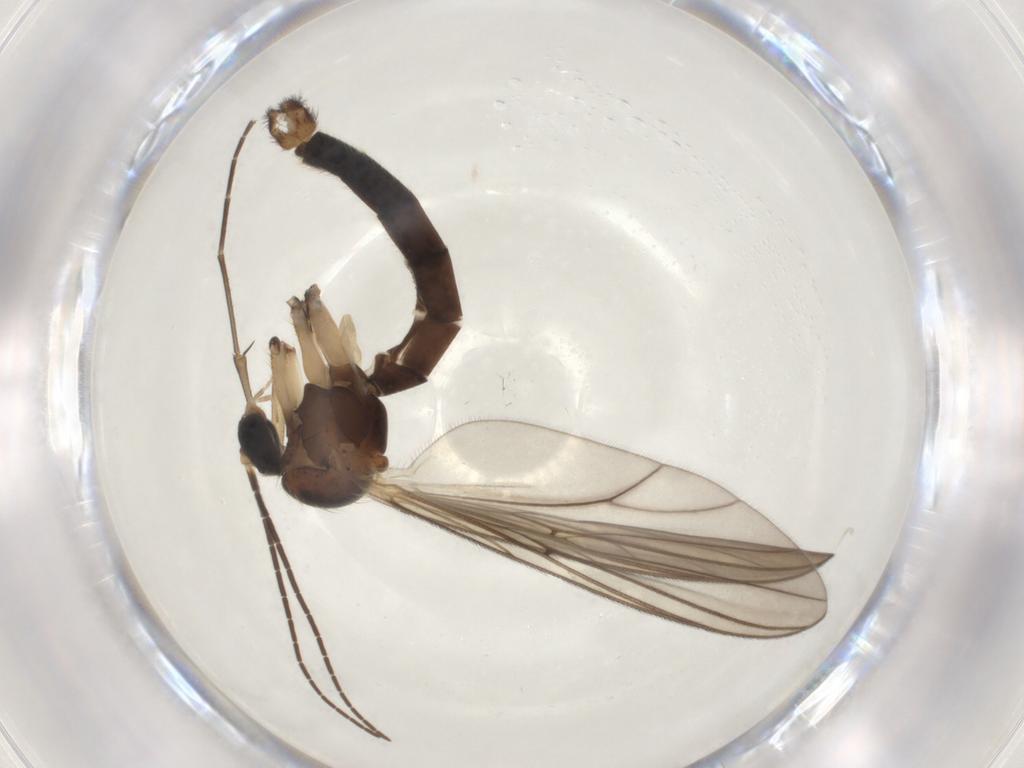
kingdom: Animalia
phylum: Arthropoda
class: Insecta
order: Diptera
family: Mycetophilidae
